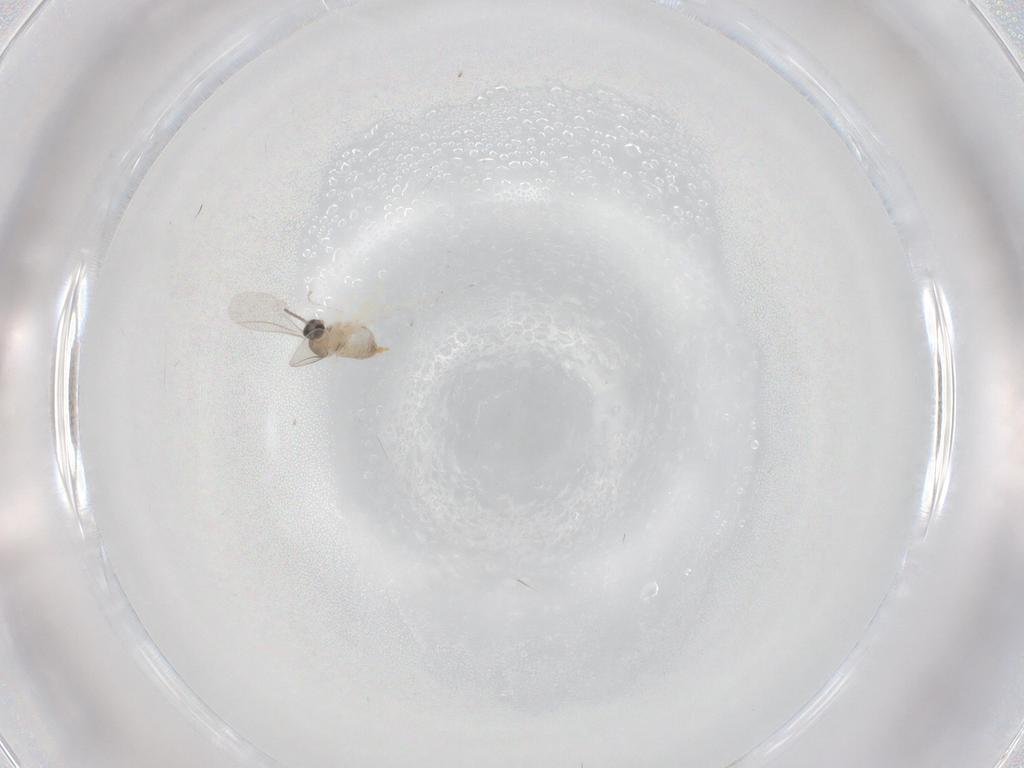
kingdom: Animalia
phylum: Arthropoda
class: Insecta
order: Diptera
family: Cecidomyiidae
